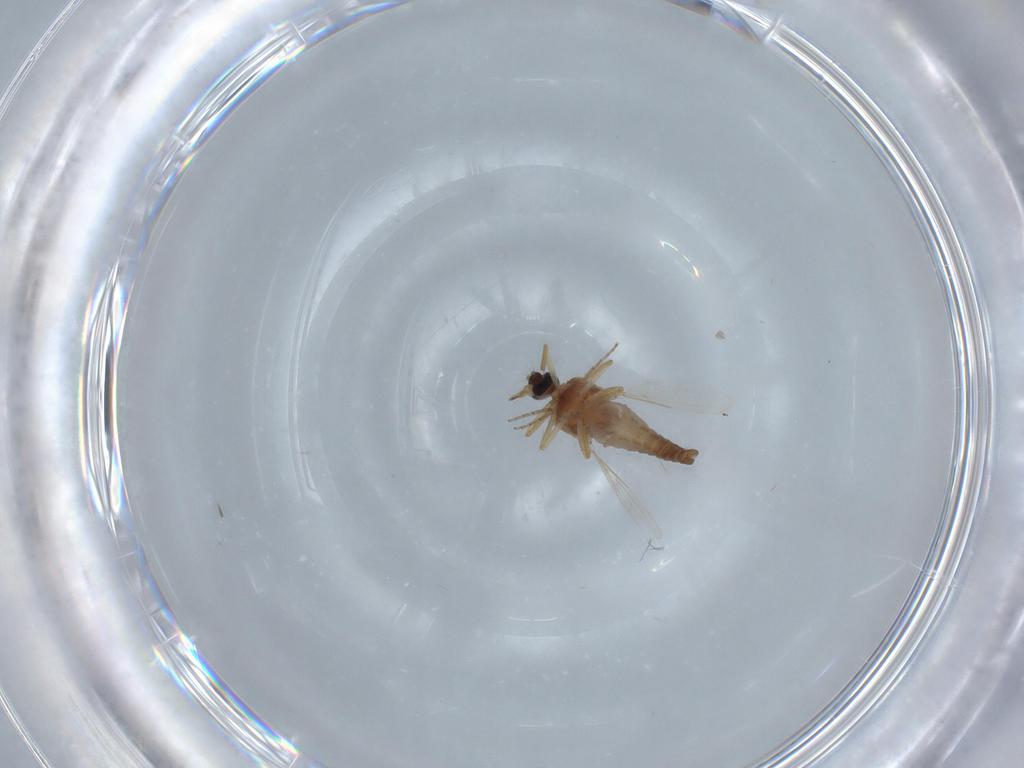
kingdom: Animalia
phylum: Arthropoda
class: Insecta
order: Diptera
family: Ceratopogonidae
